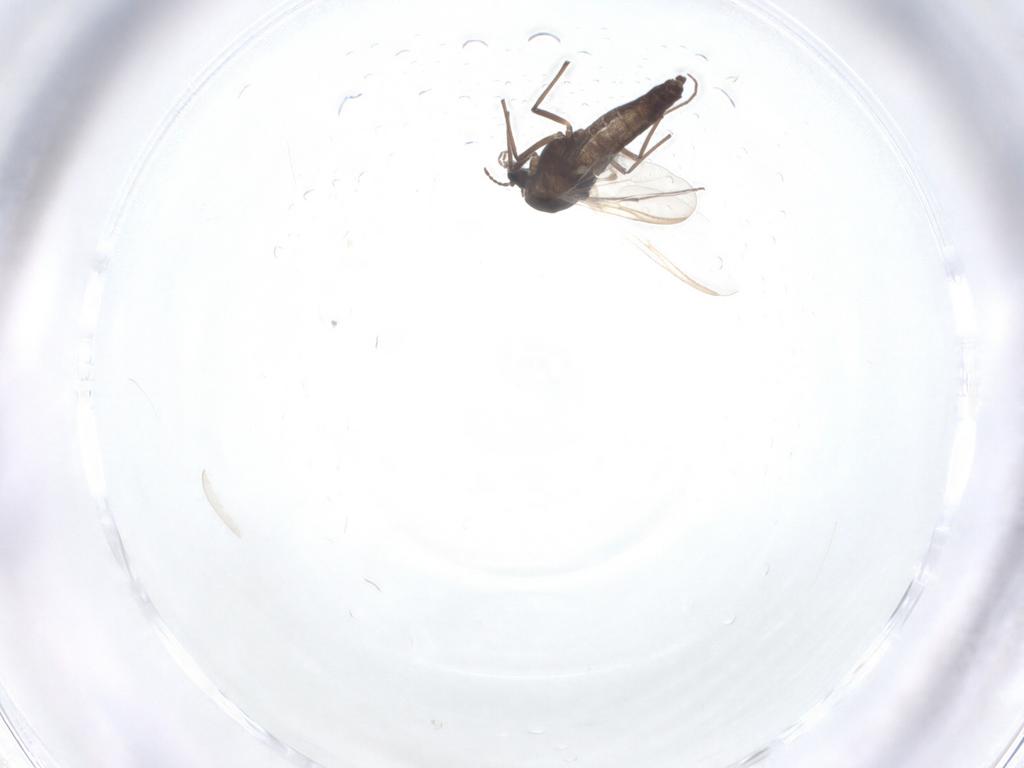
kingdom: Animalia
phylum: Arthropoda
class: Insecta
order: Diptera
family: Chironomidae
